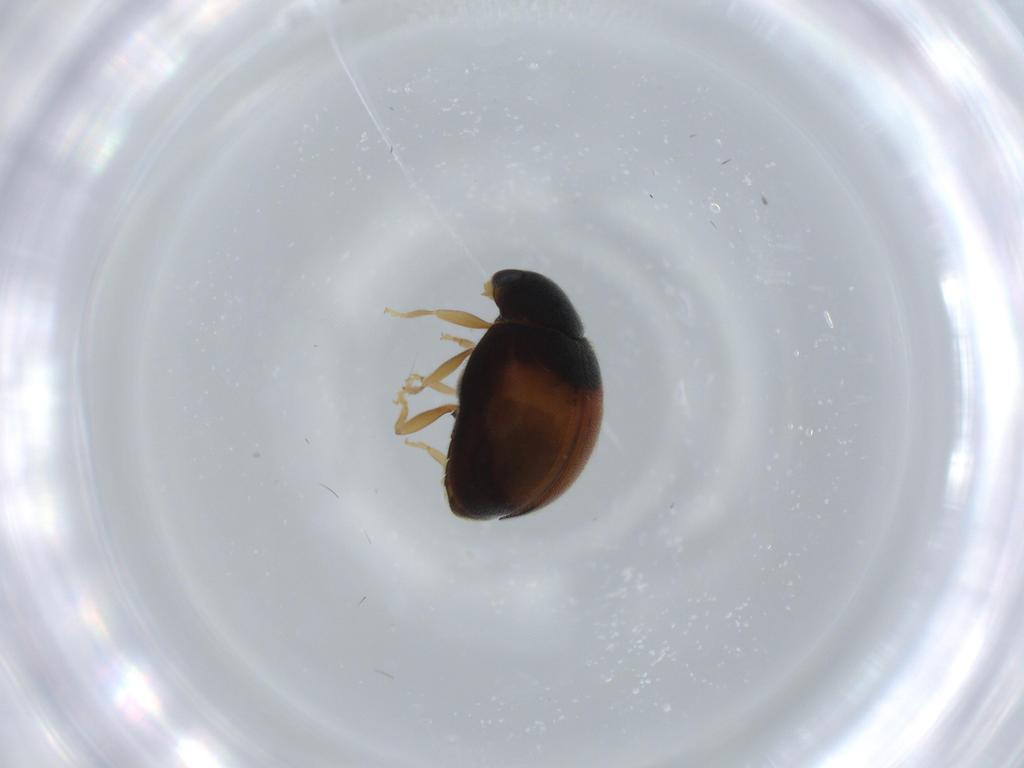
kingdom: Animalia
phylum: Arthropoda
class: Insecta
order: Coleoptera
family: Coccinellidae
